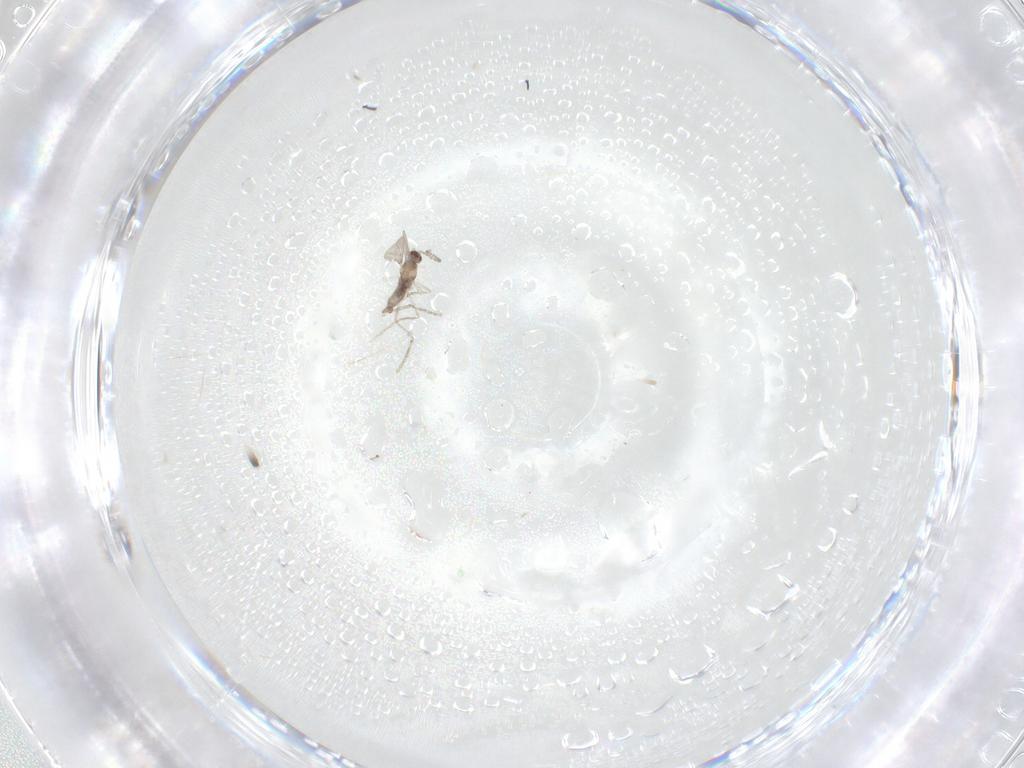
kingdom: Animalia
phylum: Arthropoda
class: Insecta
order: Diptera
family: Cecidomyiidae
